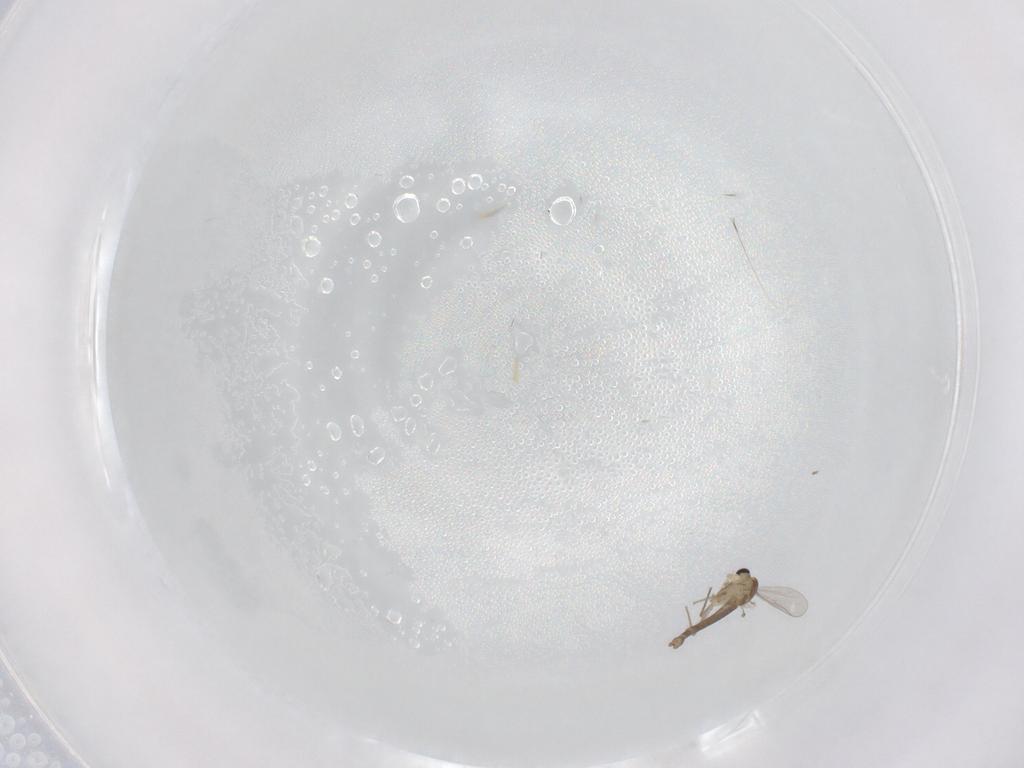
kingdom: Animalia
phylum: Arthropoda
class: Insecta
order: Diptera
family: Chironomidae
